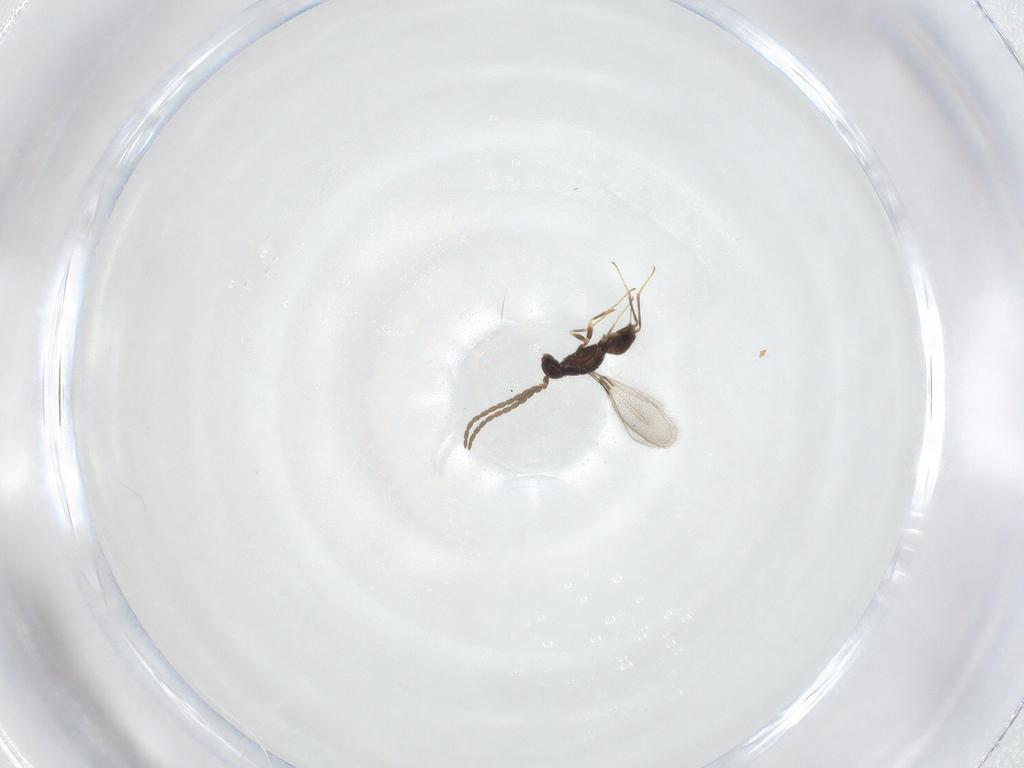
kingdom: Animalia
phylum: Arthropoda
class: Insecta
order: Hymenoptera
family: Mymaridae
